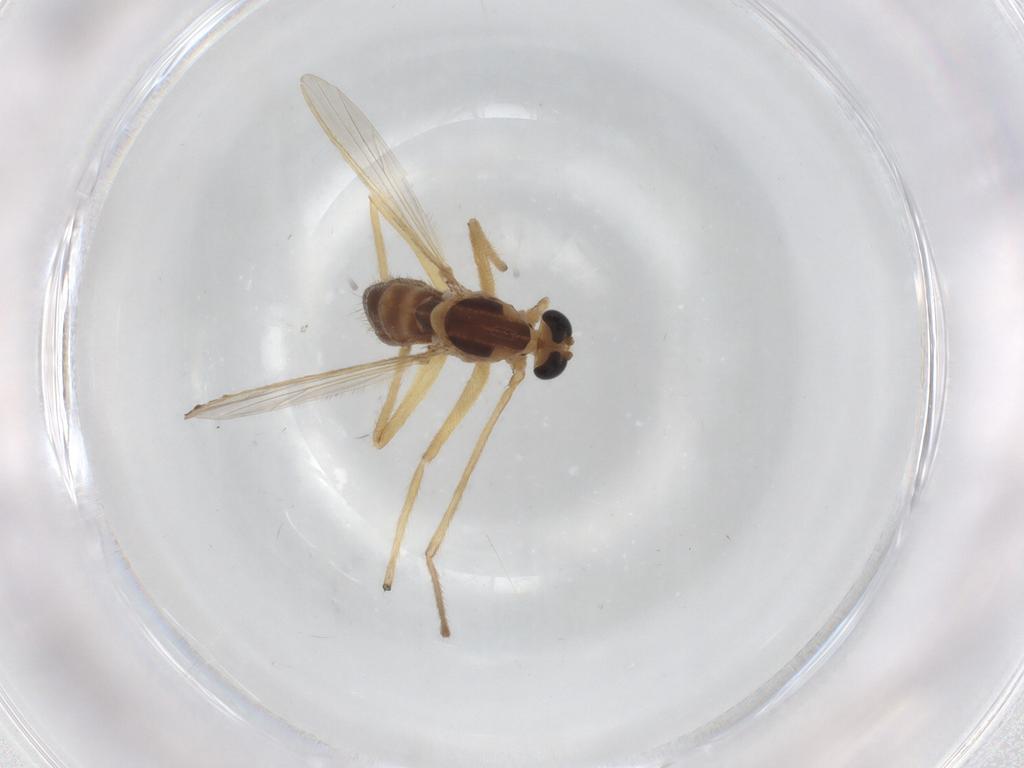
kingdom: Animalia
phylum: Arthropoda
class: Insecta
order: Diptera
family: Chironomidae
